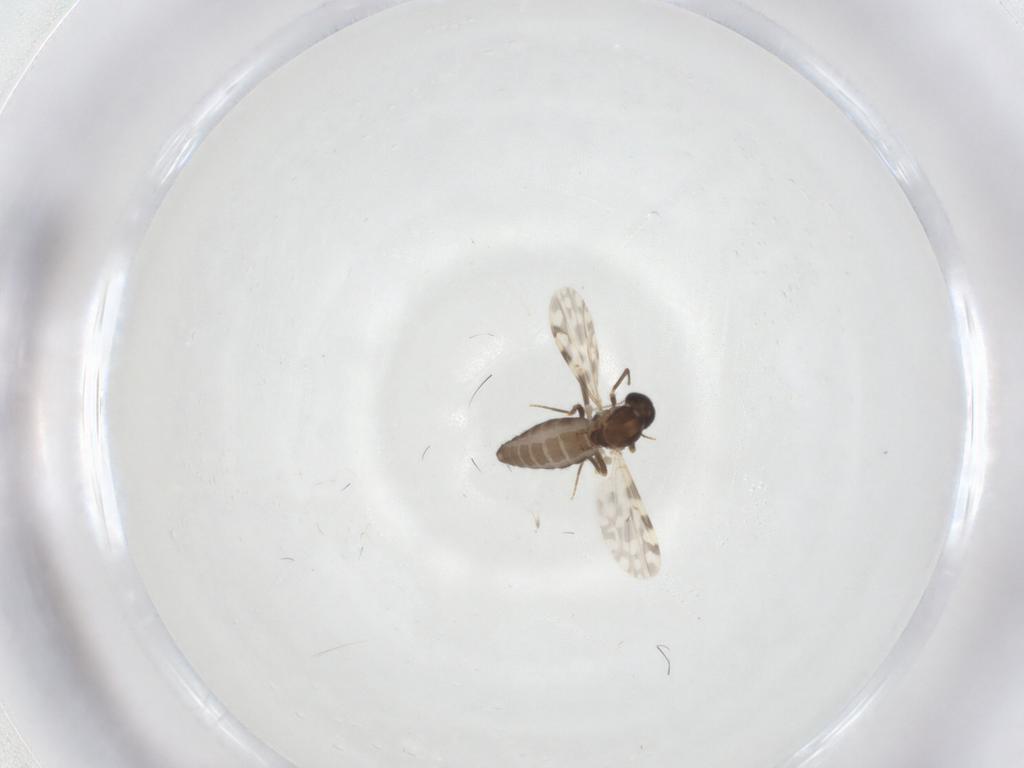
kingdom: Animalia
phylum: Arthropoda
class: Insecta
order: Diptera
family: Ceratopogonidae
